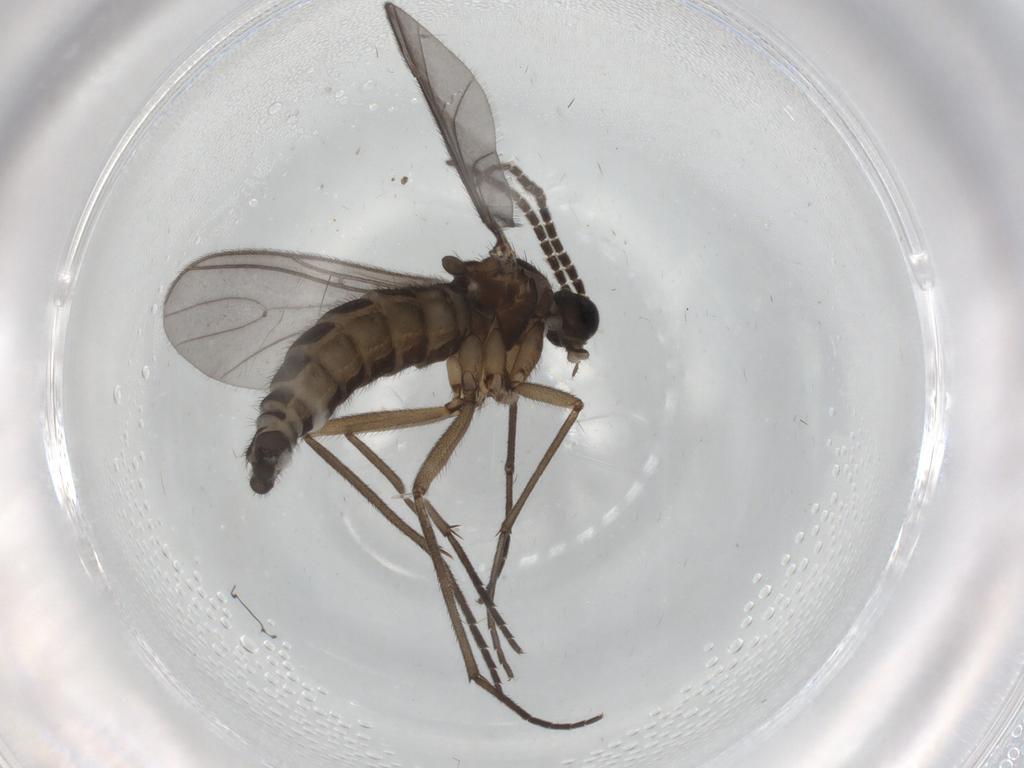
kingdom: Animalia
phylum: Arthropoda
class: Insecta
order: Diptera
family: Sciaridae
